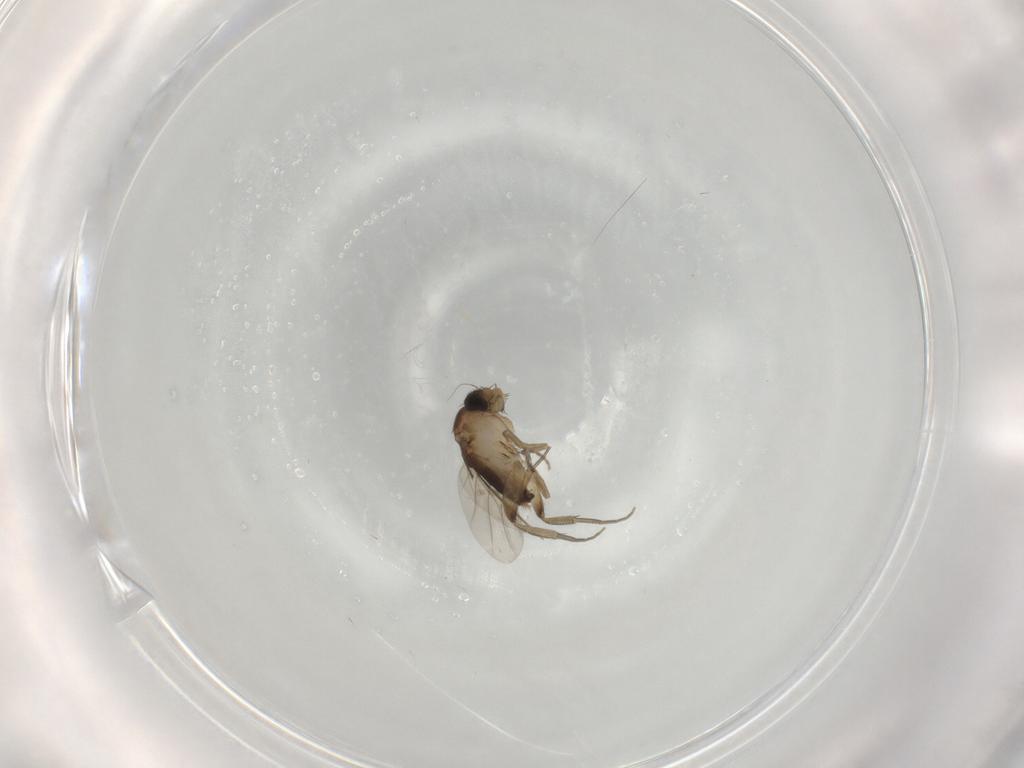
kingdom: Animalia
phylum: Arthropoda
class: Insecta
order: Diptera
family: Phoridae
